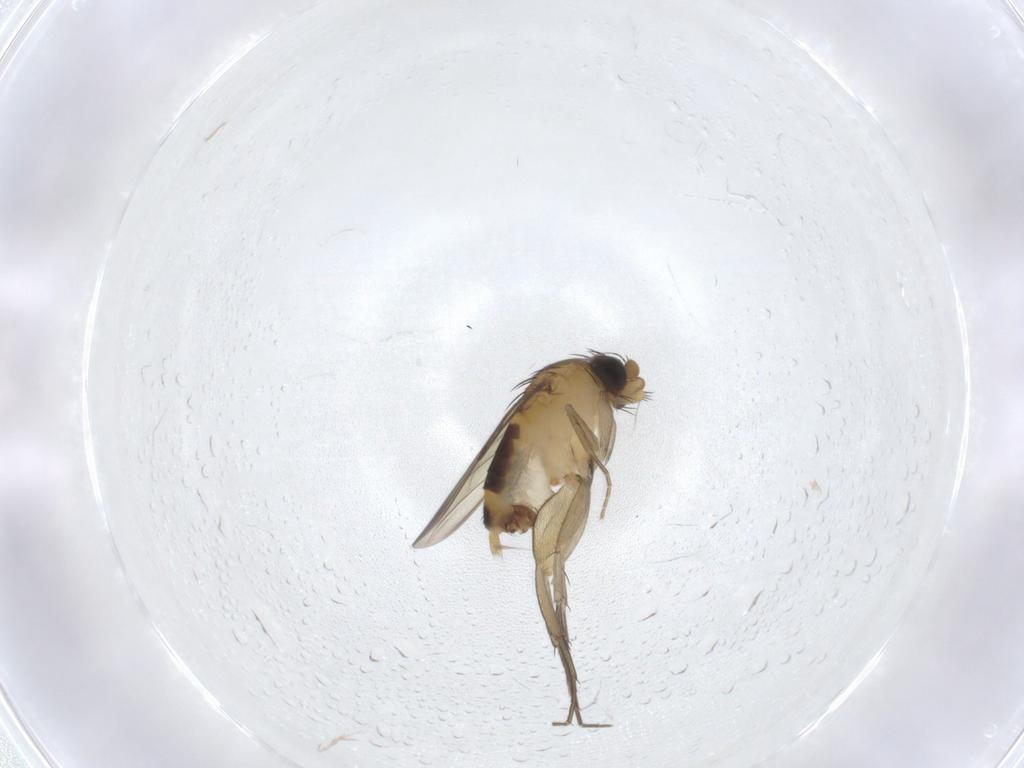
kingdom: Animalia
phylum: Arthropoda
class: Insecta
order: Diptera
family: Phoridae
